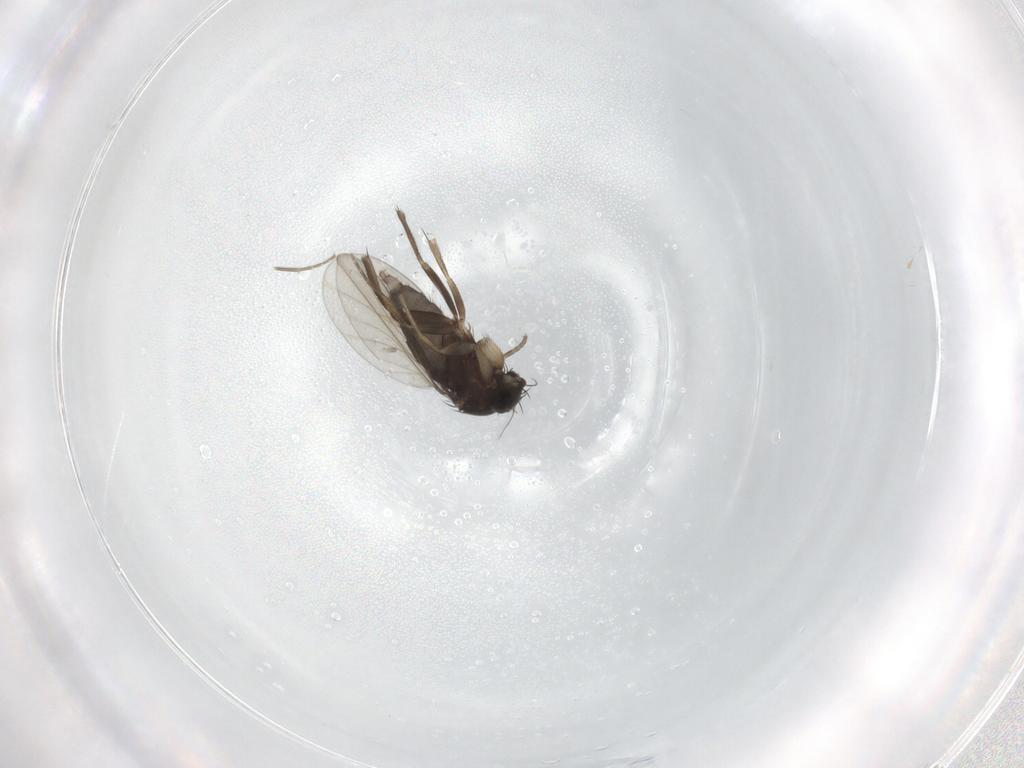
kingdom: Animalia
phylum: Arthropoda
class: Insecta
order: Diptera
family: Phoridae
